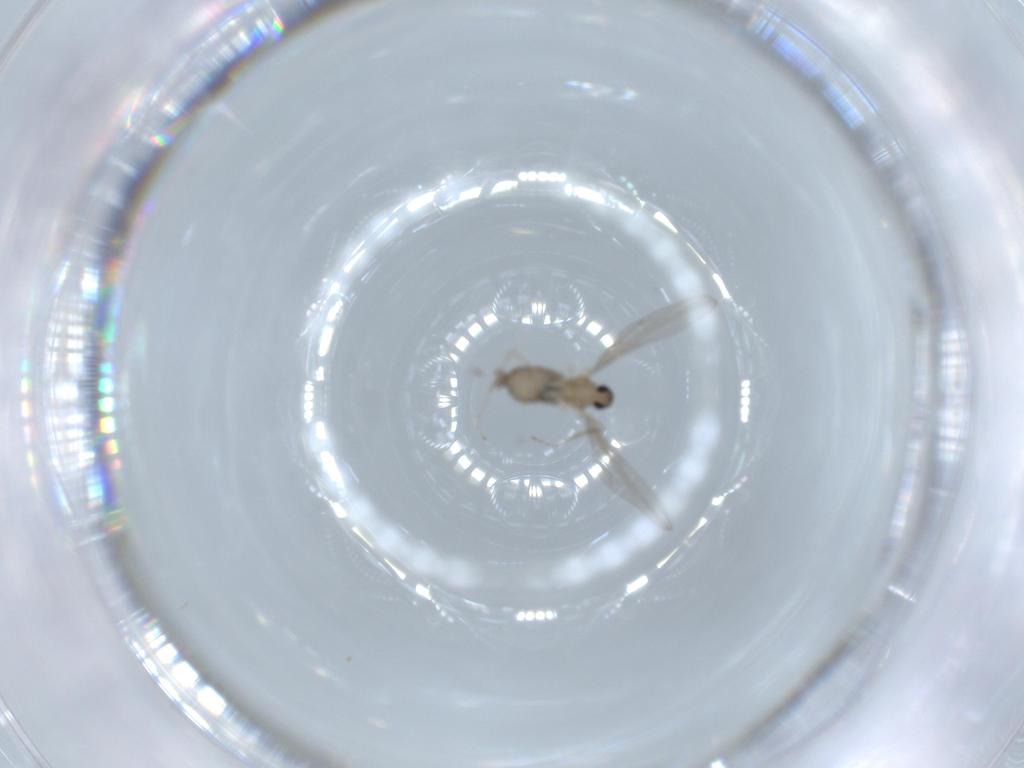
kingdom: Animalia
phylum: Arthropoda
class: Insecta
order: Diptera
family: Cecidomyiidae
